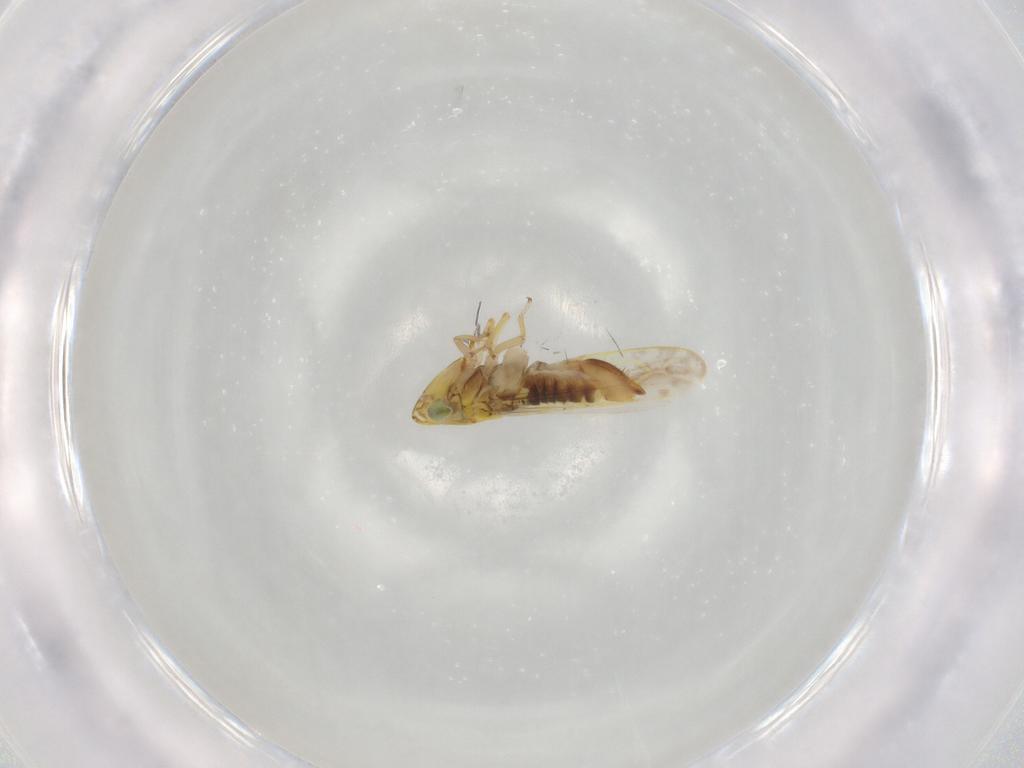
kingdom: Animalia
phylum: Arthropoda
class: Insecta
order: Hemiptera
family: Cicadellidae
